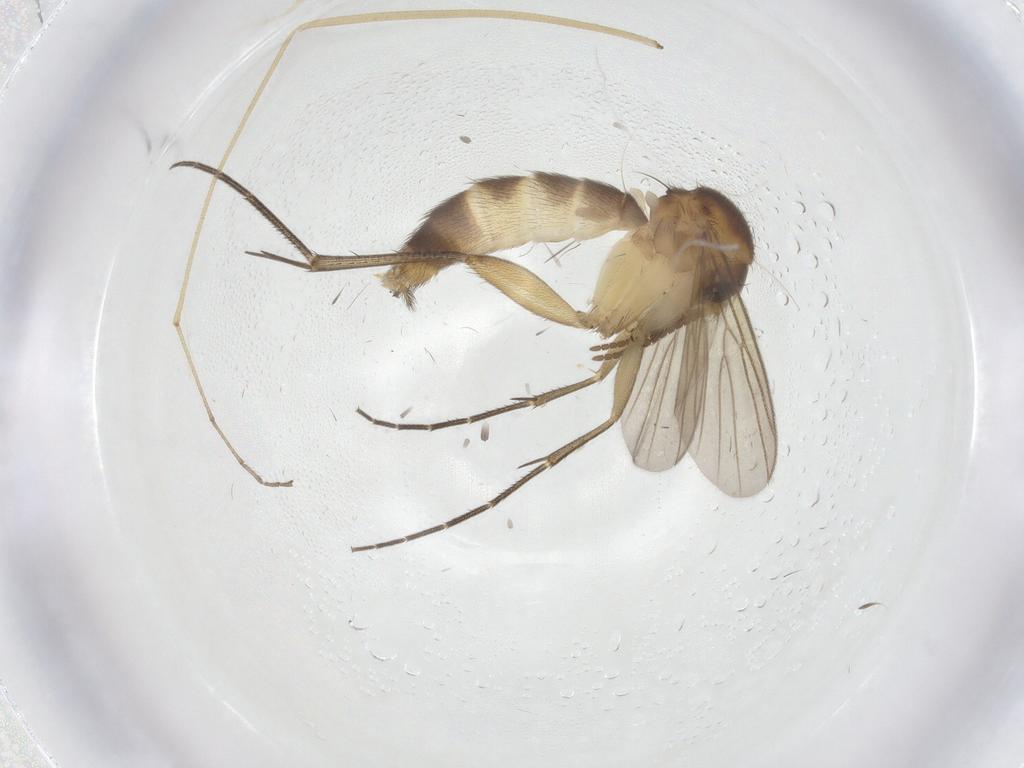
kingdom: Animalia
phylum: Arthropoda
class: Insecta
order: Diptera
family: Limoniidae
